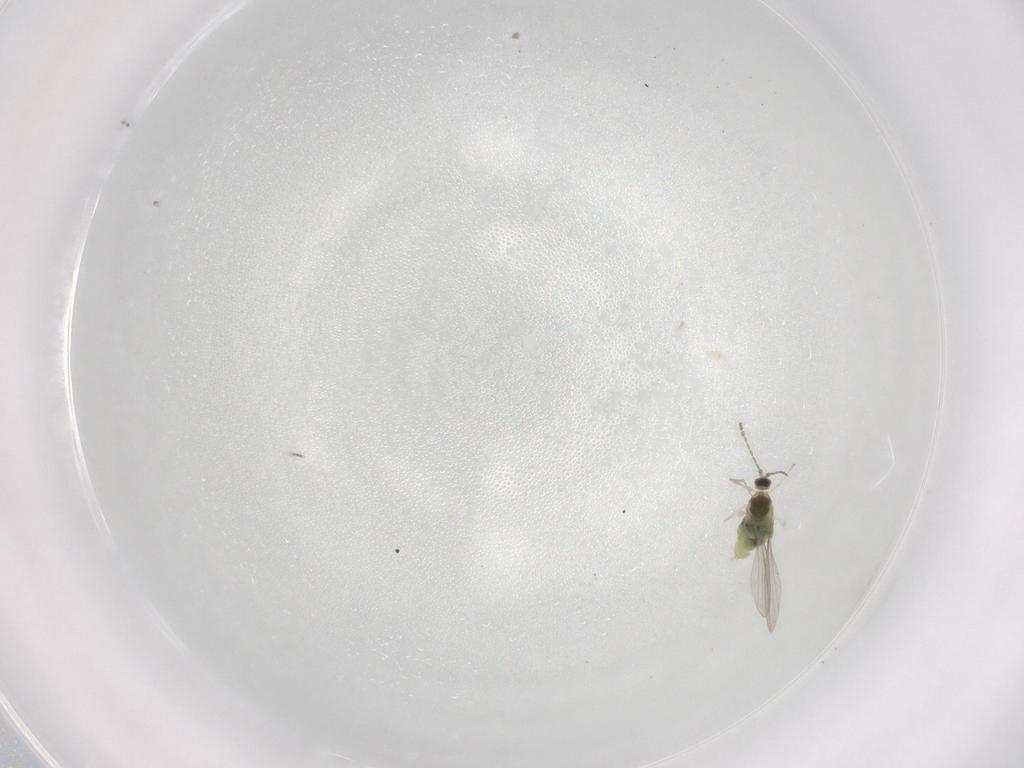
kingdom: Animalia
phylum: Arthropoda
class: Insecta
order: Diptera
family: Cecidomyiidae
